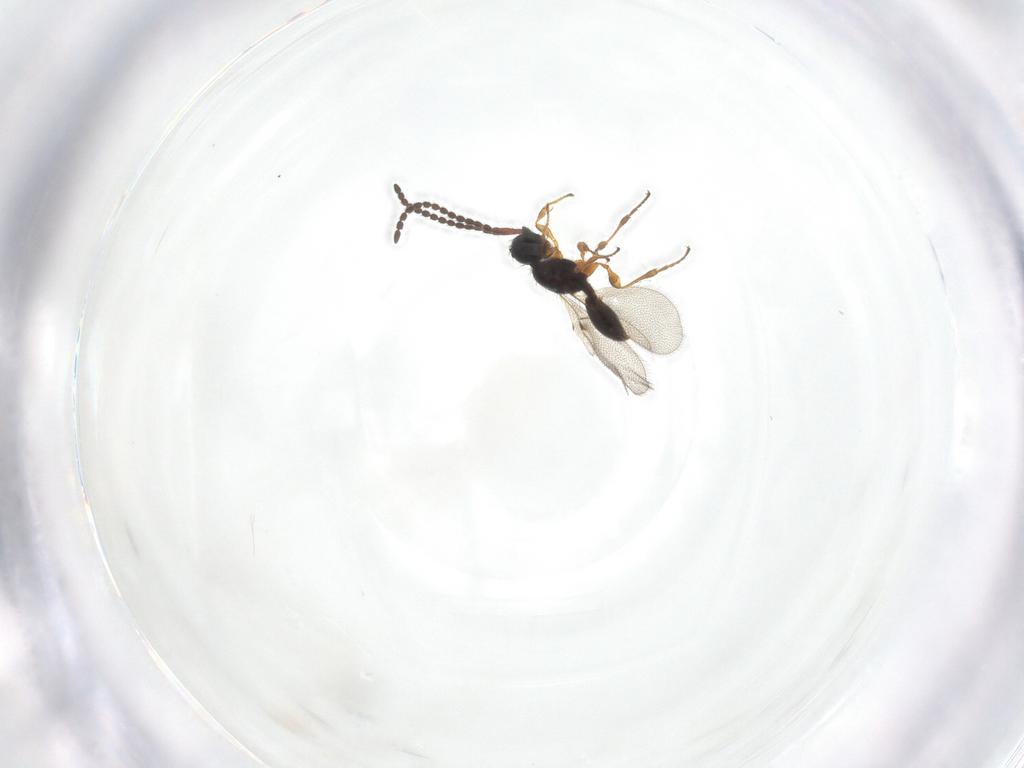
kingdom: Animalia
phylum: Arthropoda
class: Insecta
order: Hymenoptera
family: Diapriidae
